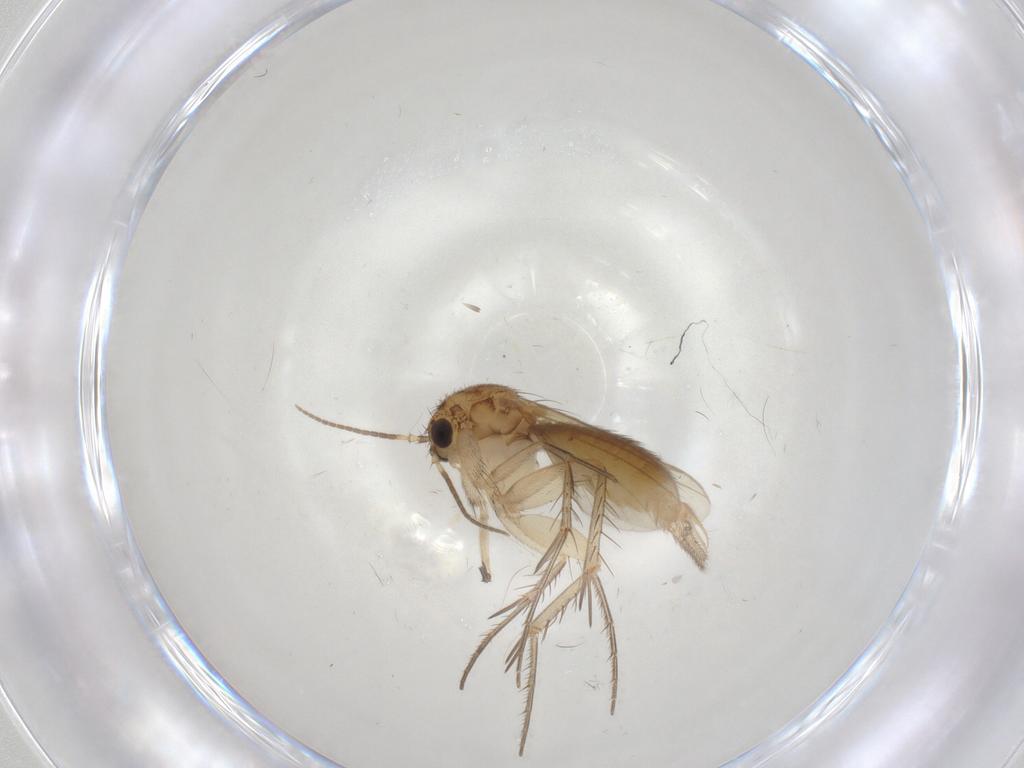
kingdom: Animalia
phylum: Arthropoda
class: Insecta
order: Diptera
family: Mycetophilidae
